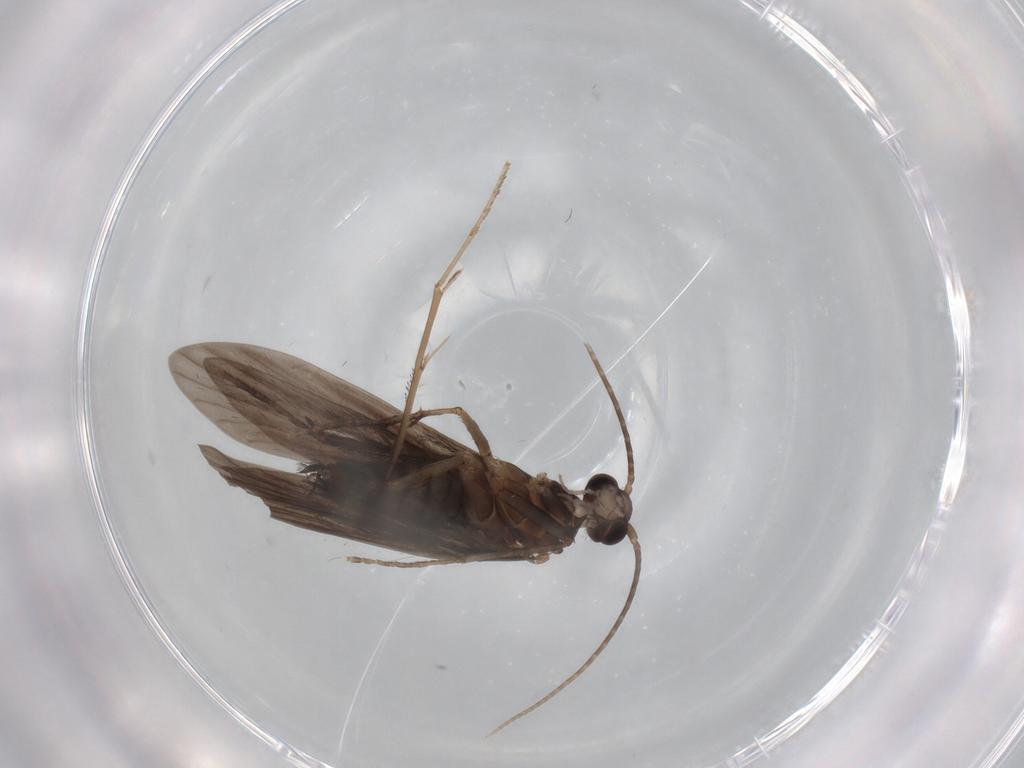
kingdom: Animalia
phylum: Arthropoda
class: Insecta
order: Trichoptera
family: Xiphocentronidae
